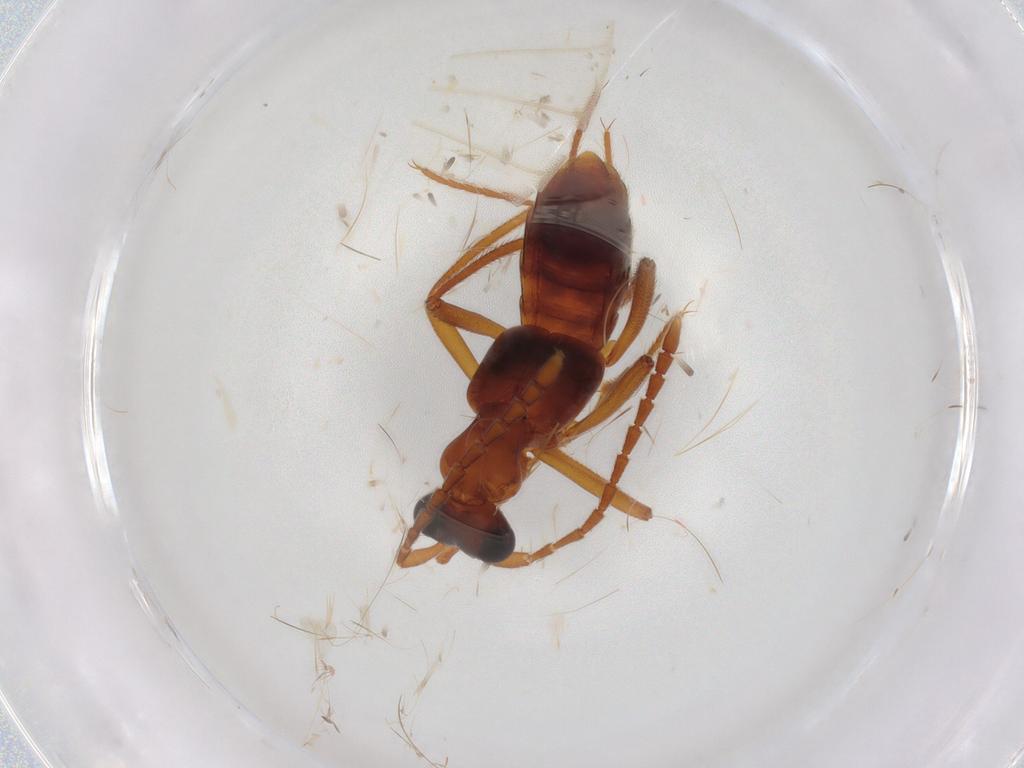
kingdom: Animalia
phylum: Arthropoda
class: Insecta
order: Coleoptera
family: Staphylinidae
